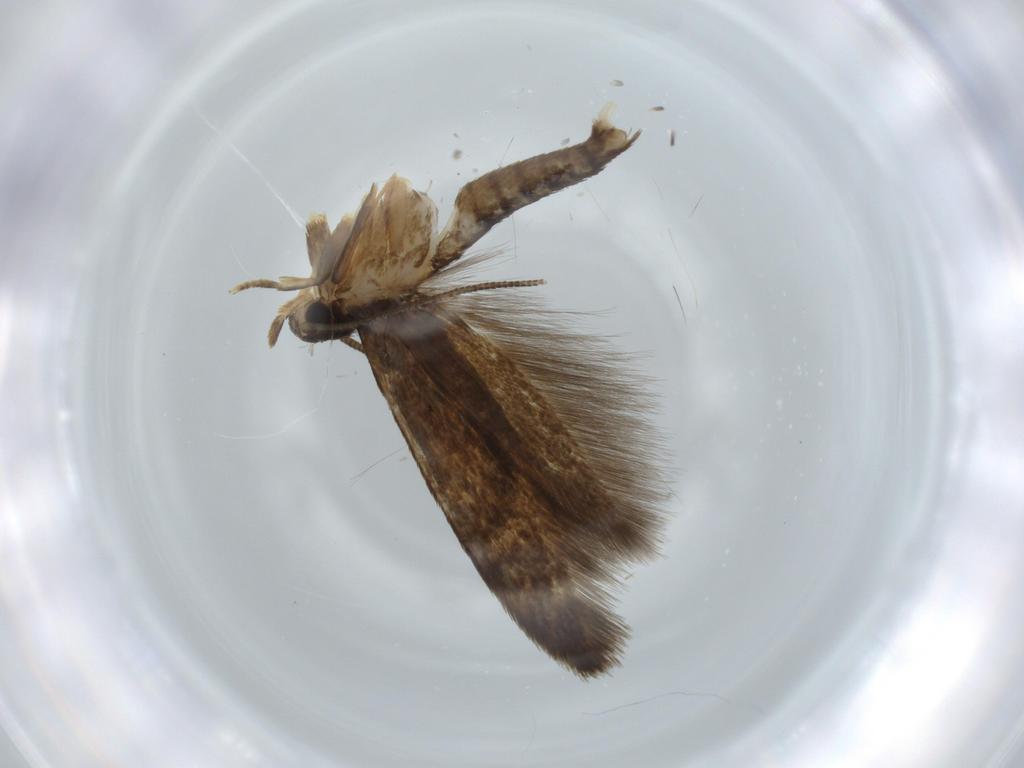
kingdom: Animalia
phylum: Arthropoda
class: Insecta
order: Lepidoptera
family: Tineidae
